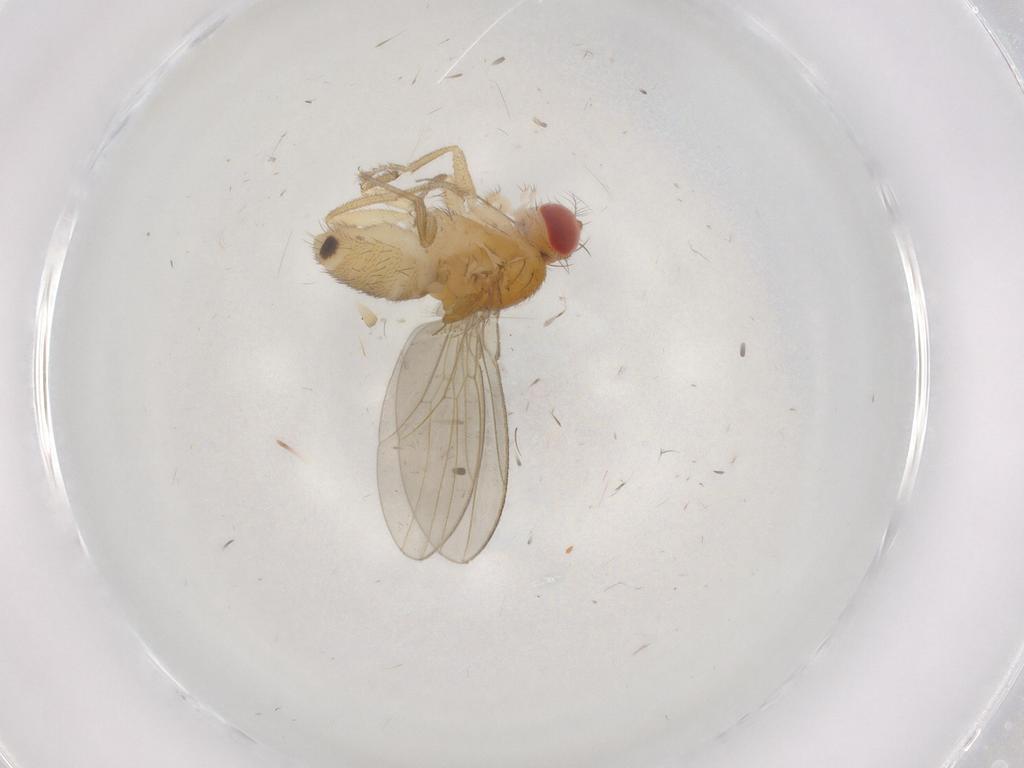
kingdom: Animalia
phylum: Arthropoda
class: Insecta
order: Diptera
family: Drosophilidae
